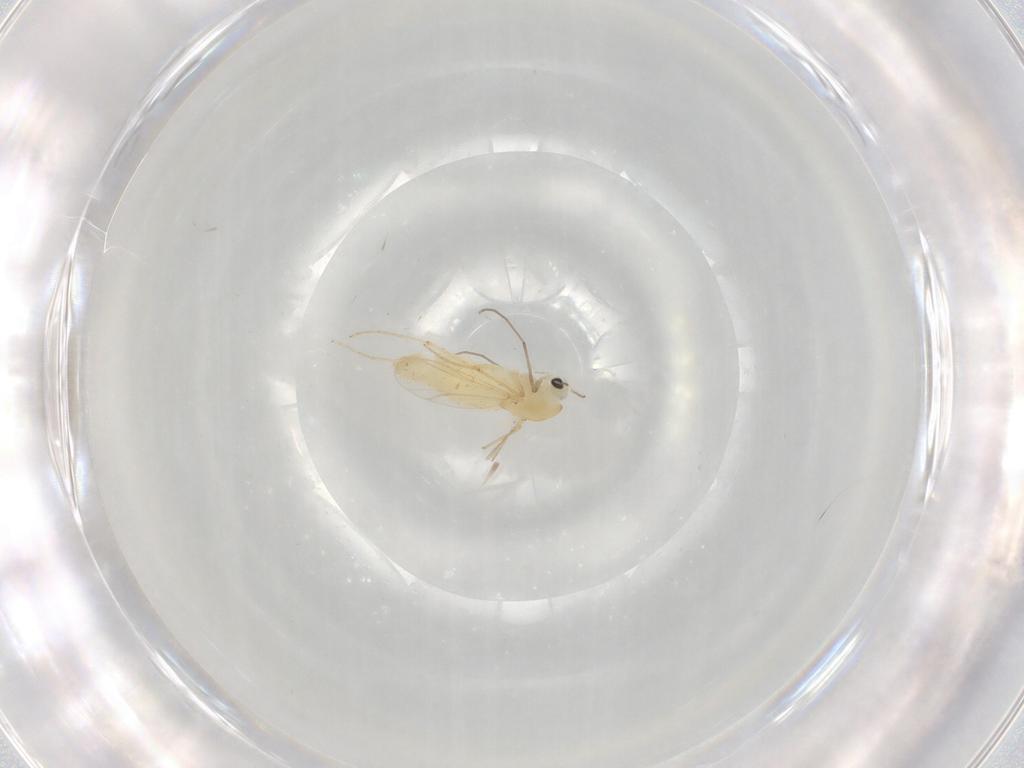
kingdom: Animalia
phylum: Arthropoda
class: Insecta
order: Diptera
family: Chironomidae
